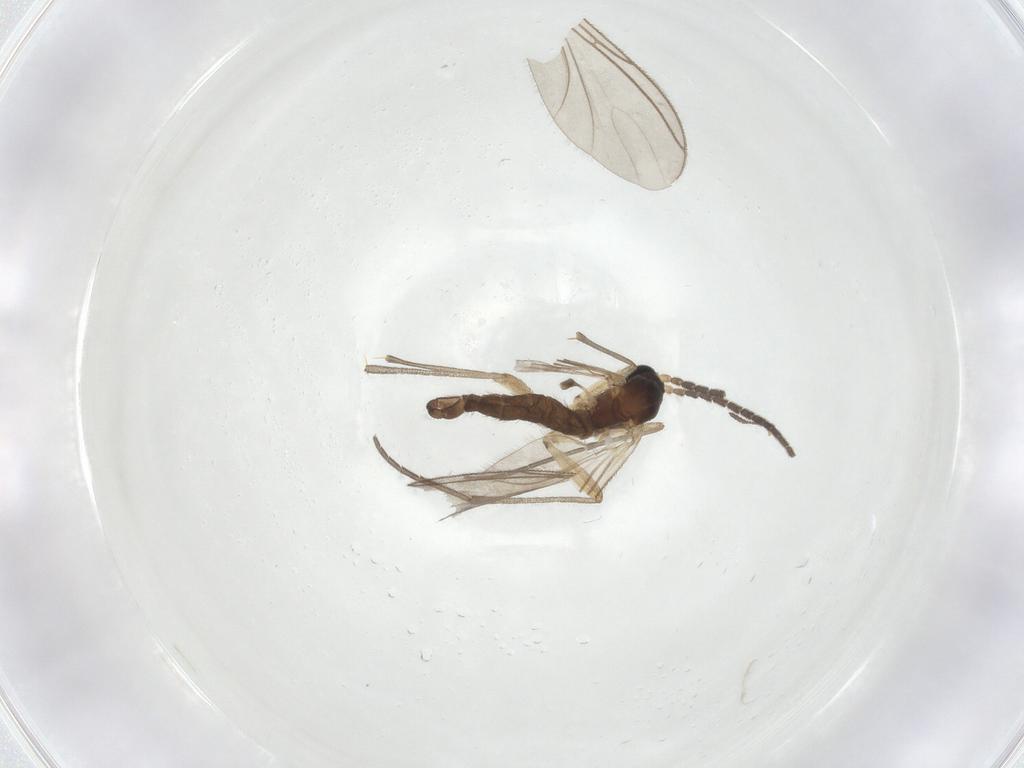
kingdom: Animalia
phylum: Arthropoda
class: Insecta
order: Diptera
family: Sciaridae
